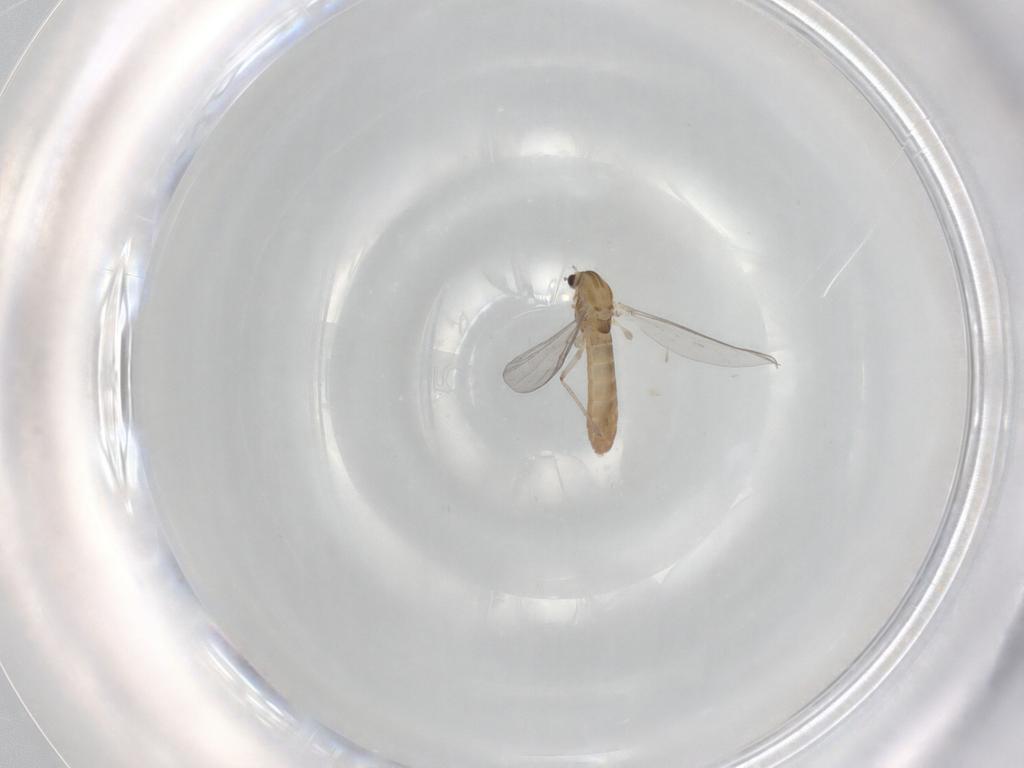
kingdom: Animalia
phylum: Arthropoda
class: Insecta
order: Diptera
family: Chironomidae
